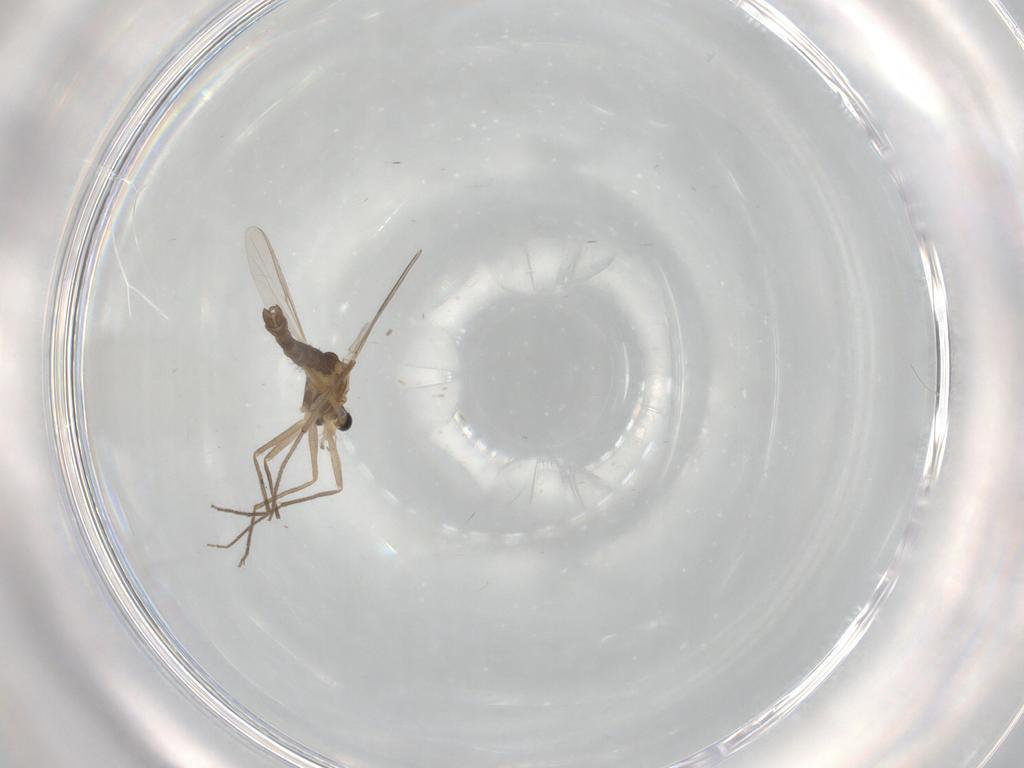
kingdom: Animalia
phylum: Arthropoda
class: Insecta
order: Diptera
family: Chironomidae
